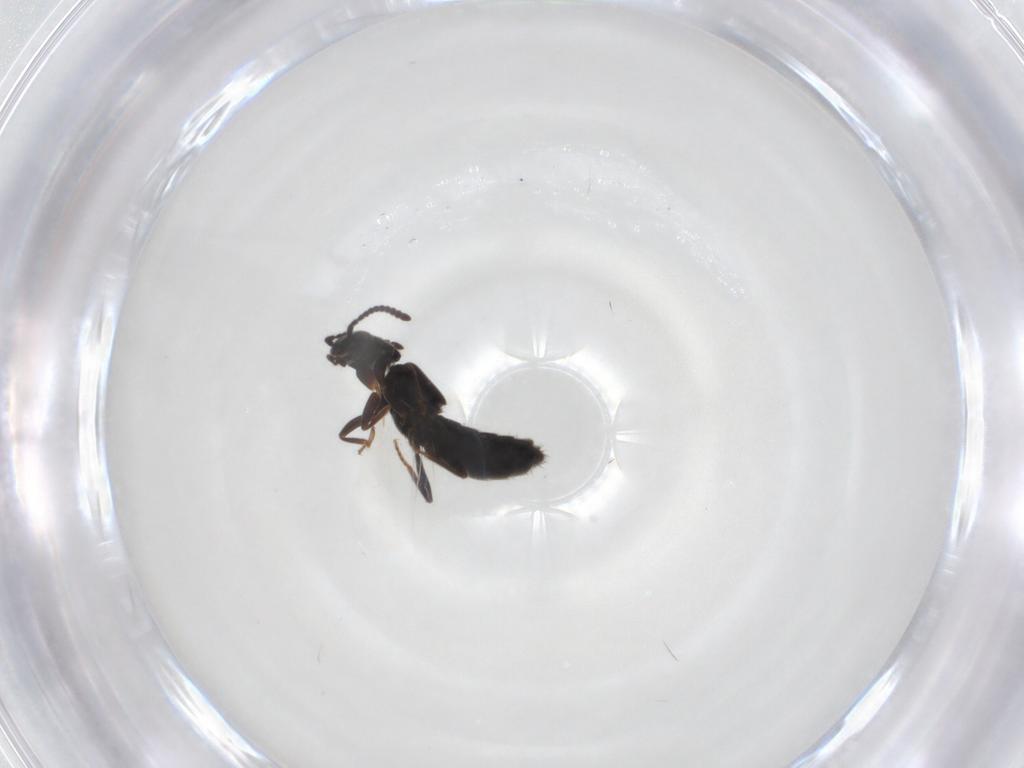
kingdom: Animalia
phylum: Arthropoda
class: Insecta
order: Coleoptera
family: Staphylinidae
